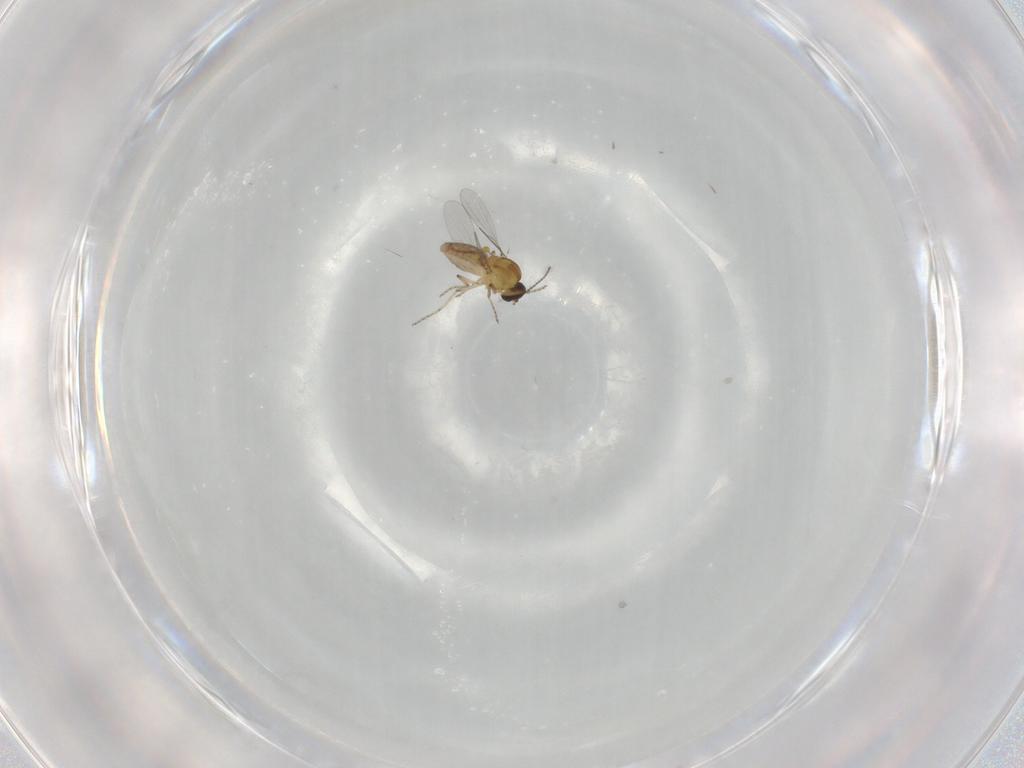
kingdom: Animalia
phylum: Arthropoda
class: Insecta
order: Diptera
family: Ceratopogonidae
